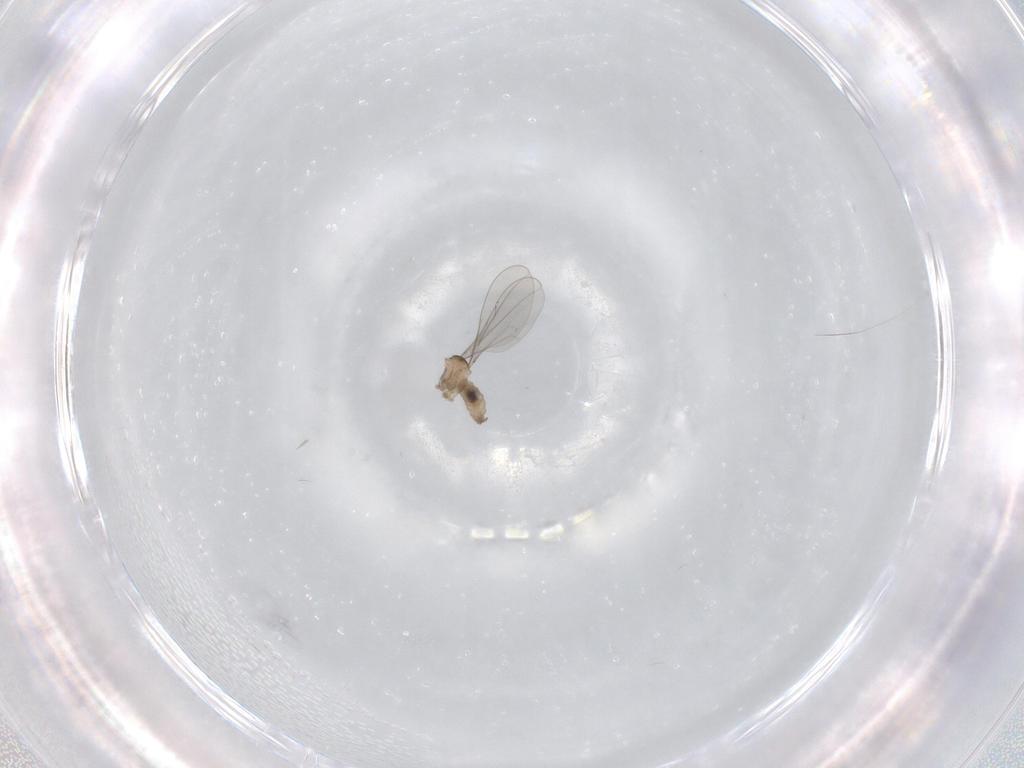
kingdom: Animalia
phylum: Arthropoda
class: Insecta
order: Diptera
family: Cecidomyiidae
